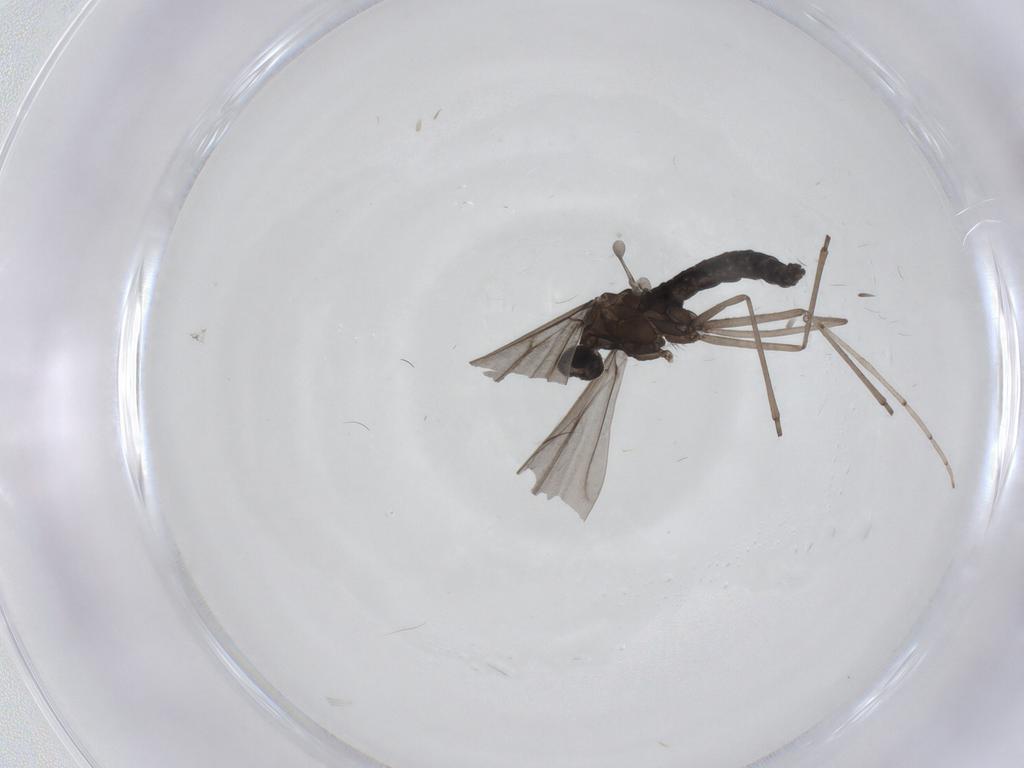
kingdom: Animalia
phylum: Arthropoda
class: Insecta
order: Diptera
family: Cecidomyiidae
